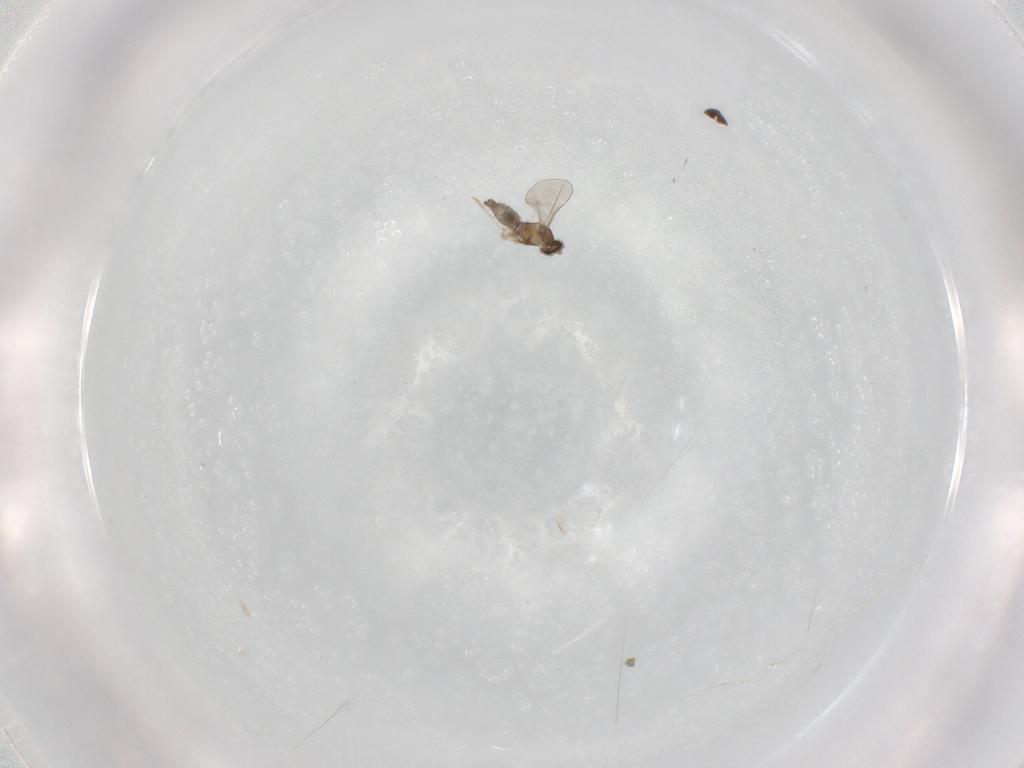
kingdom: Animalia
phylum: Arthropoda
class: Insecta
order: Diptera
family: Cecidomyiidae
